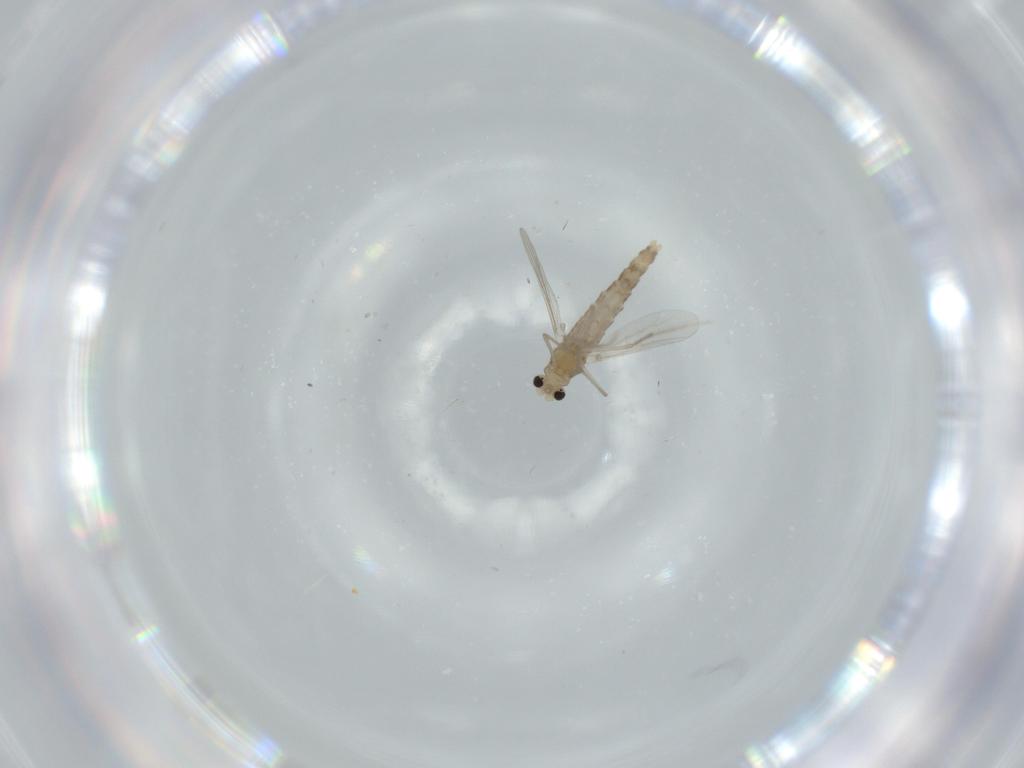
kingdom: Animalia
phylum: Arthropoda
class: Insecta
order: Diptera
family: Chironomidae
